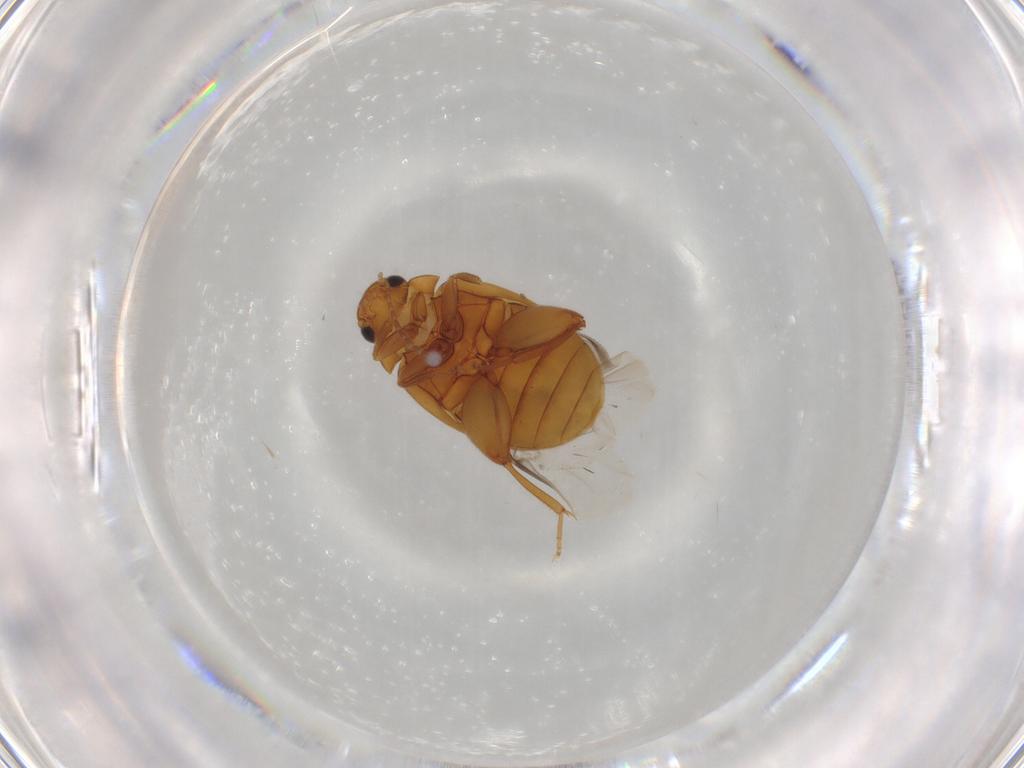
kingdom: Animalia
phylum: Arthropoda
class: Insecta
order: Coleoptera
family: Scirtidae
